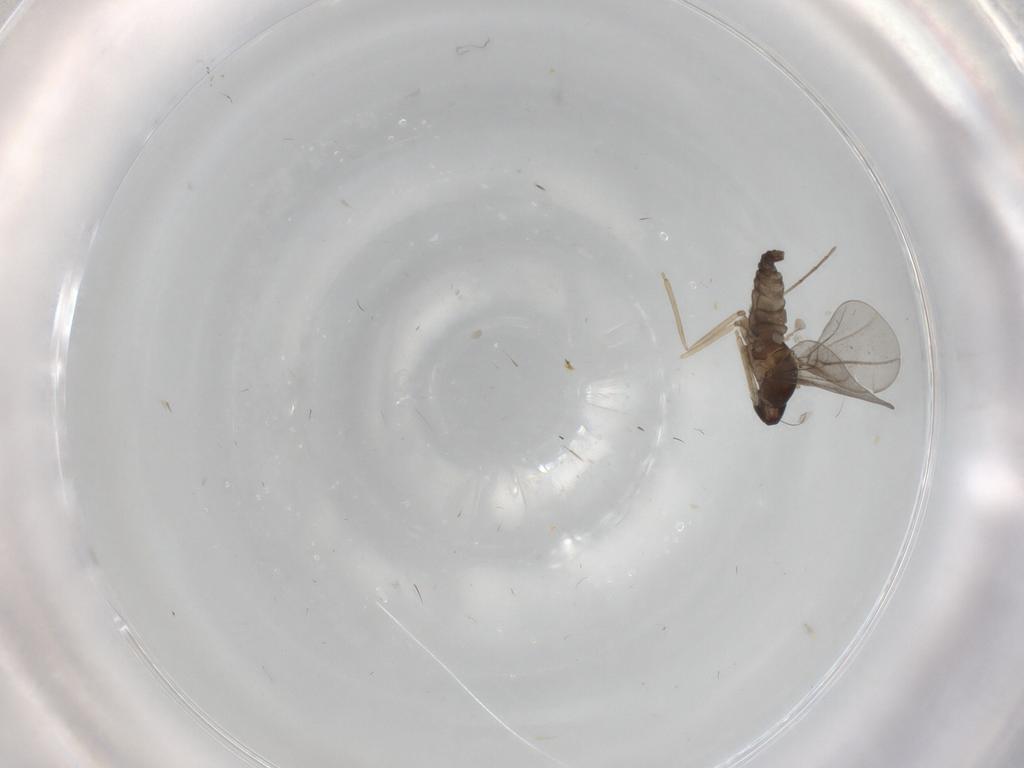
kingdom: Animalia
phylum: Arthropoda
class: Insecta
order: Diptera
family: Cecidomyiidae
